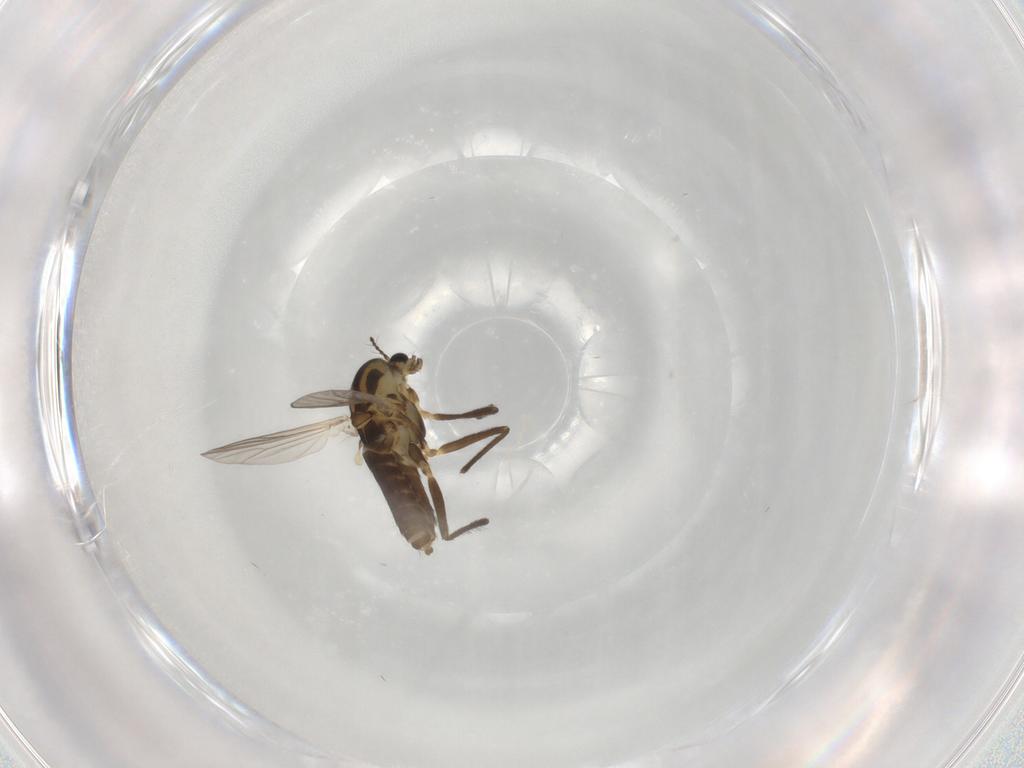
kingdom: Animalia
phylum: Arthropoda
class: Insecta
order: Diptera
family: Chironomidae
